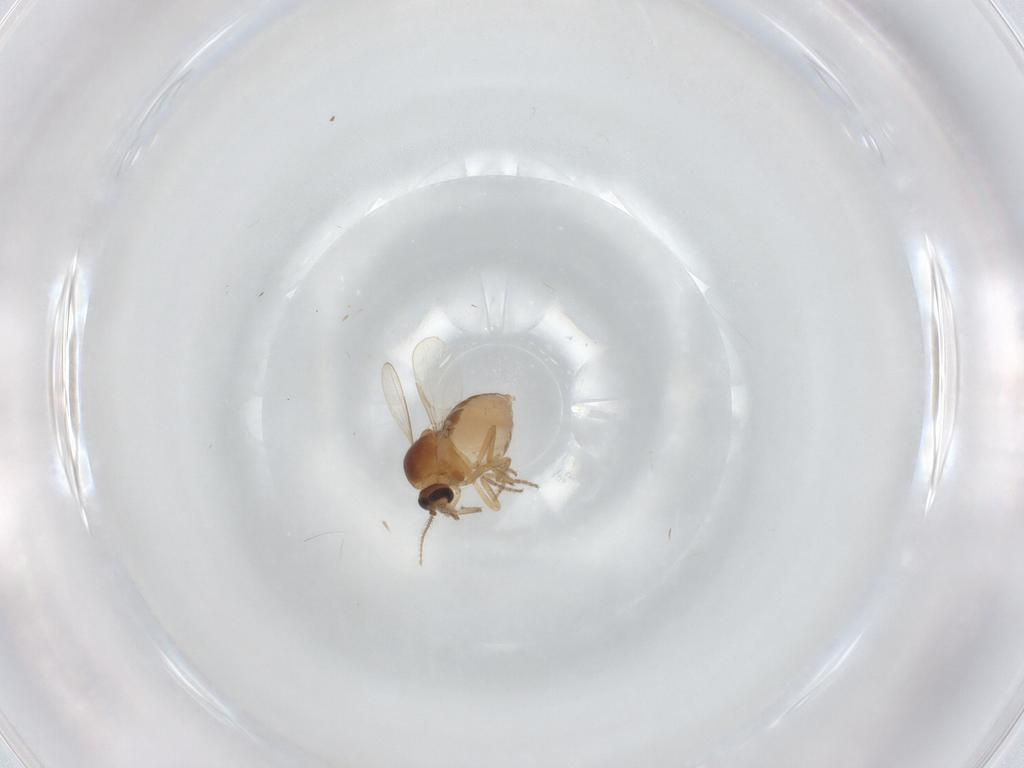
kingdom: Animalia
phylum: Arthropoda
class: Insecta
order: Diptera
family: Ceratopogonidae
